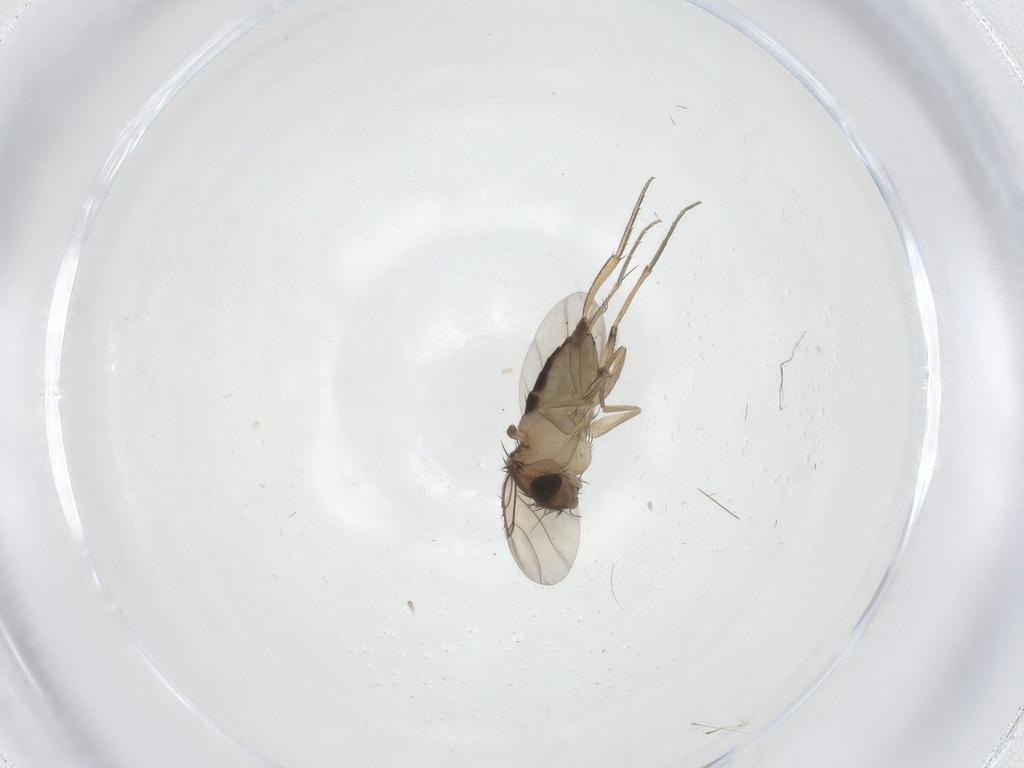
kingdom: Animalia
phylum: Arthropoda
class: Insecta
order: Diptera
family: Phoridae
